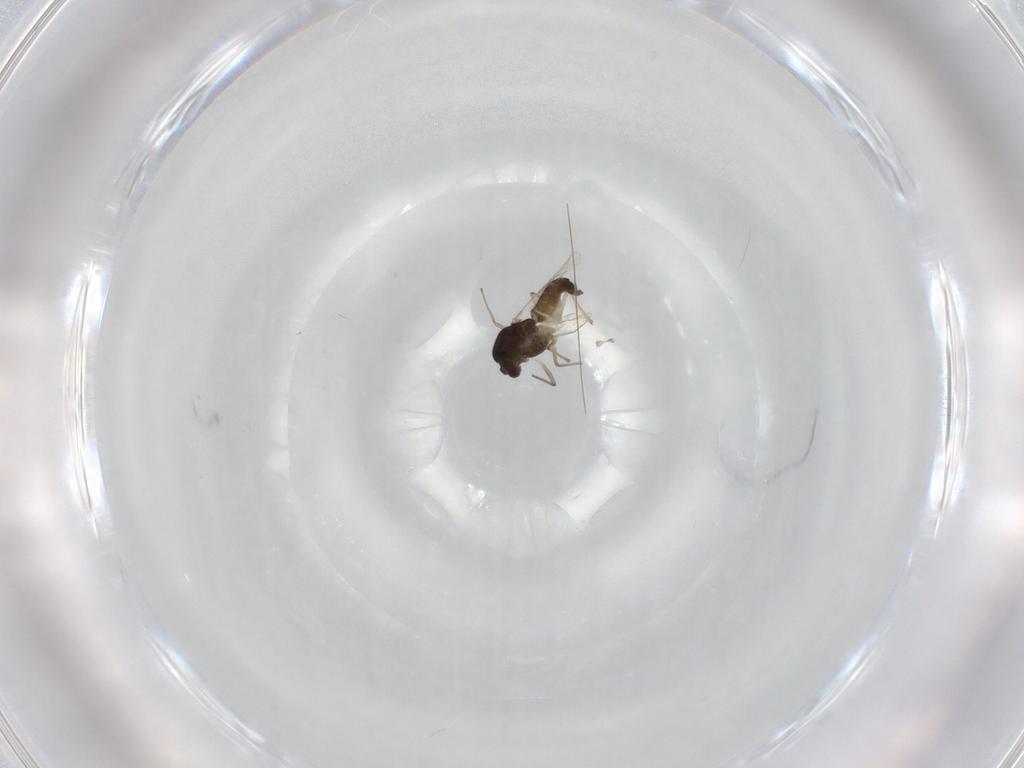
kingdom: Animalia
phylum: Arthropoda
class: Insecta
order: Diptera
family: Chironomidae
